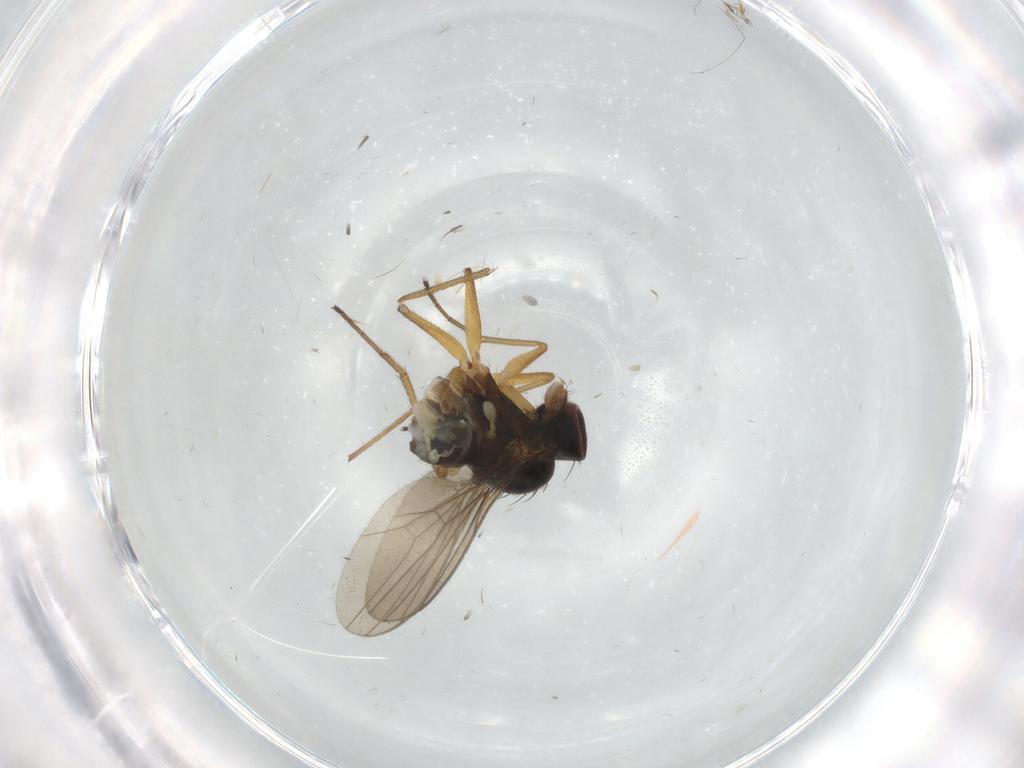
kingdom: Animalia
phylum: Arthropoda
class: Insecta
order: Diptera
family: Dolichopodidae
